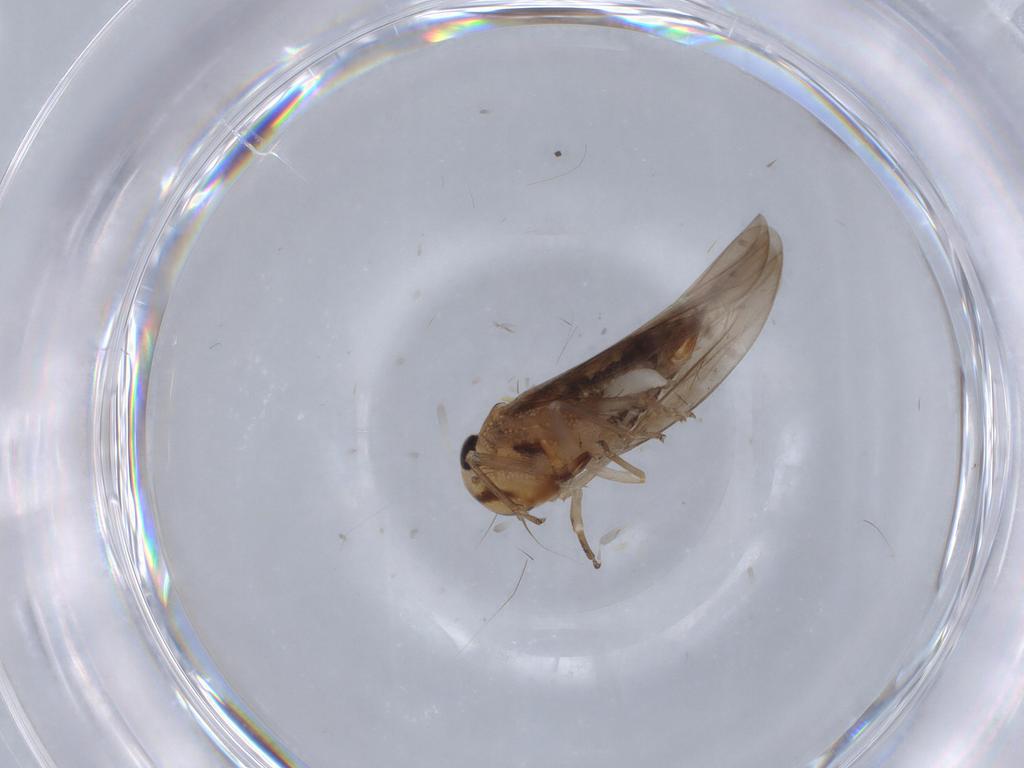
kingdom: Animalia
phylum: Arthropoda
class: Insecta
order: Hemiptera
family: Cicadellidae
